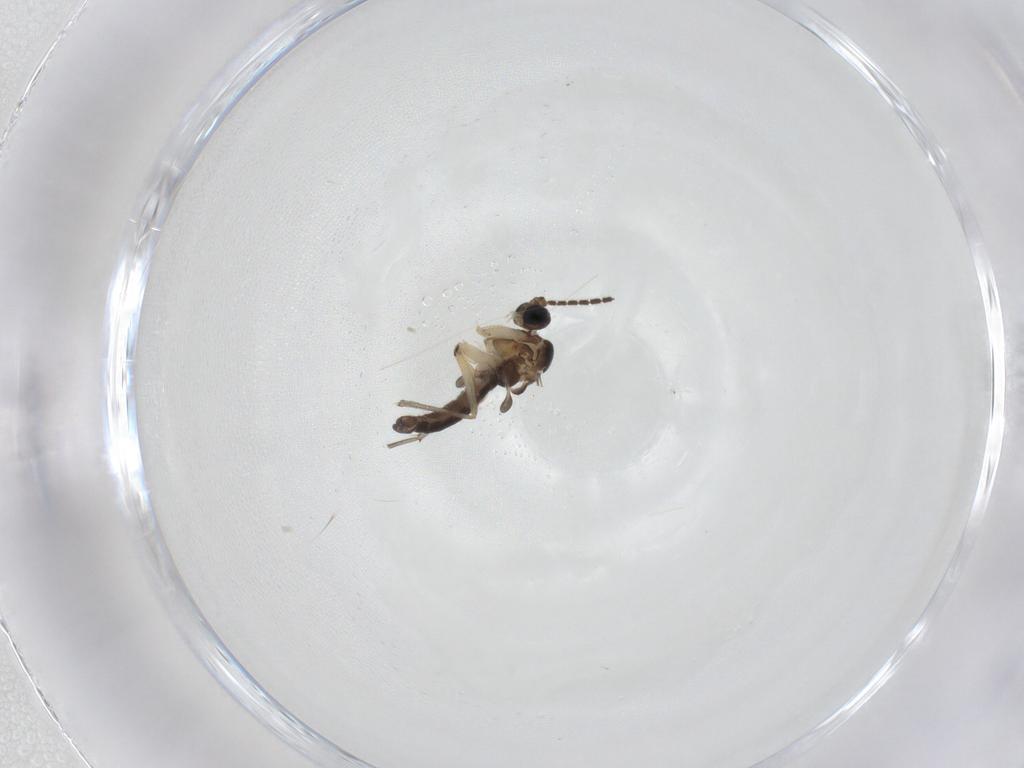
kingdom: Animalia
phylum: Arthropoda
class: Insecta
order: Diptera
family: Sciaridae
